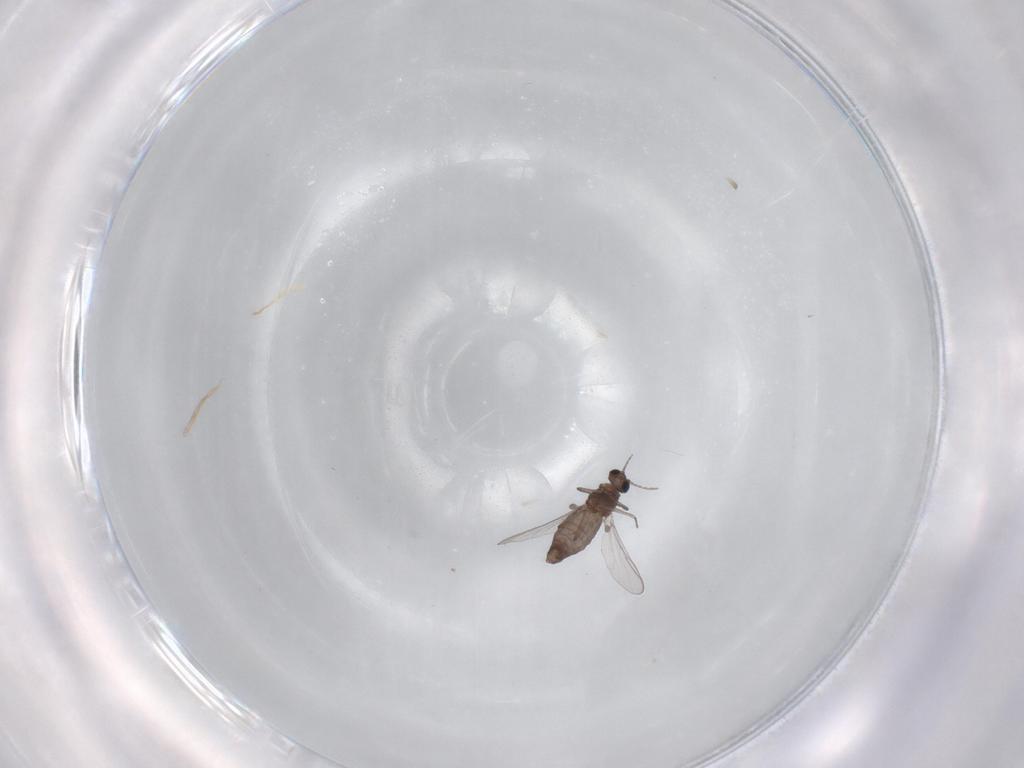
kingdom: Animalia
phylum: Arthropoda
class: Insecta
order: Diptera
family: Chironomidae
